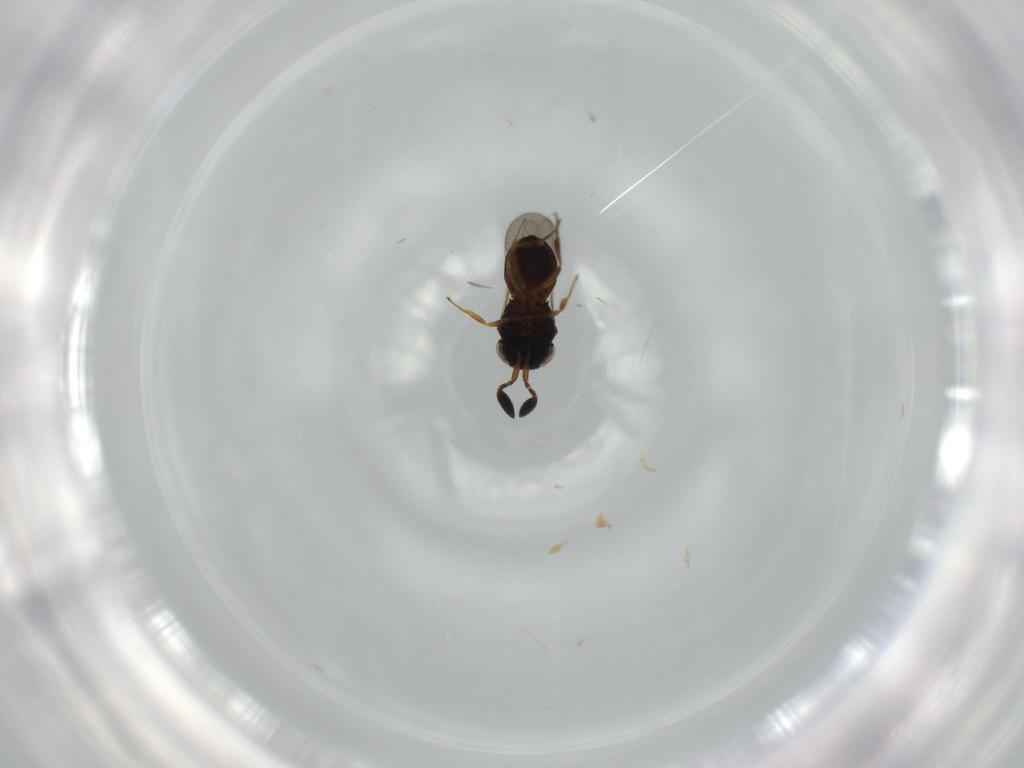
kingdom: Animalia
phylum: Arthropoda
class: Insecta
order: Hymenoptera
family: Scelionidae
